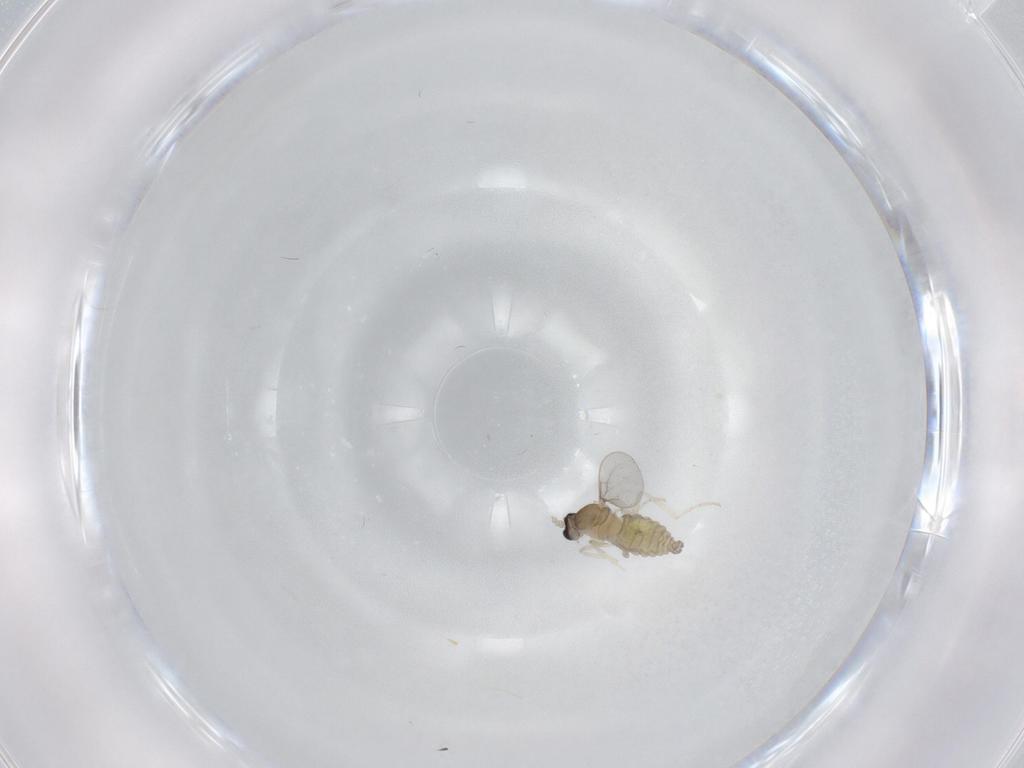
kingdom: Animalia
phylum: Arthropoda
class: Insecta
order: Diptera
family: Cecidomyiidae
